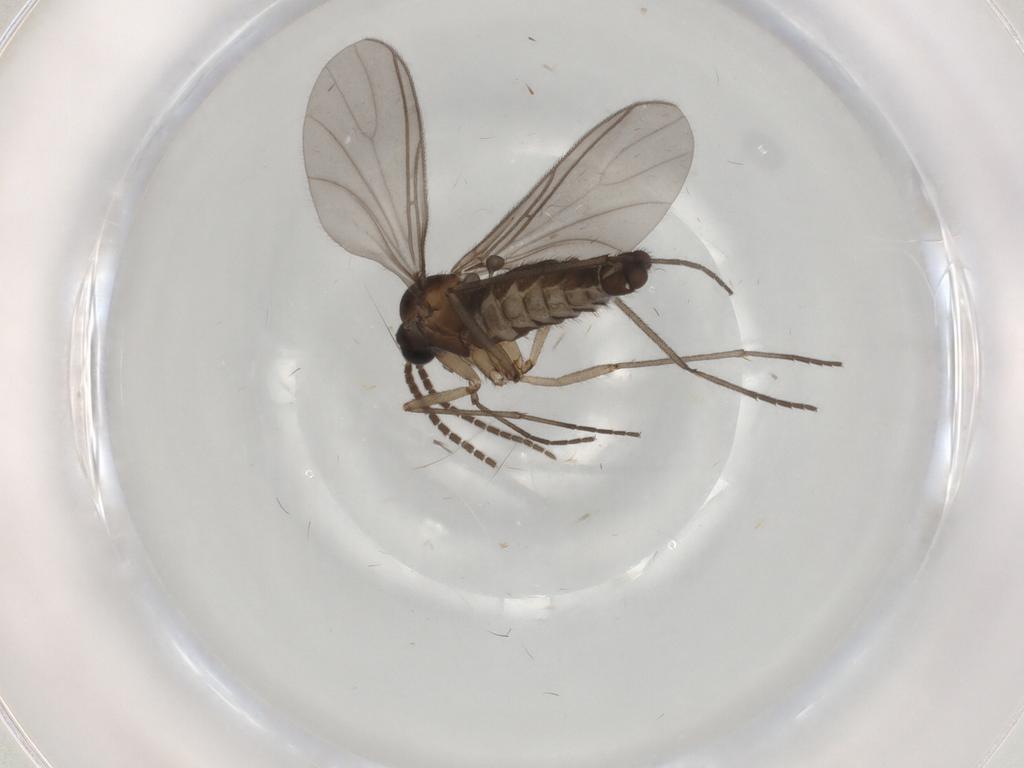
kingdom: Animalia
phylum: Arthropoda
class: Insecta
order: Diptera
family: Sciaridae
